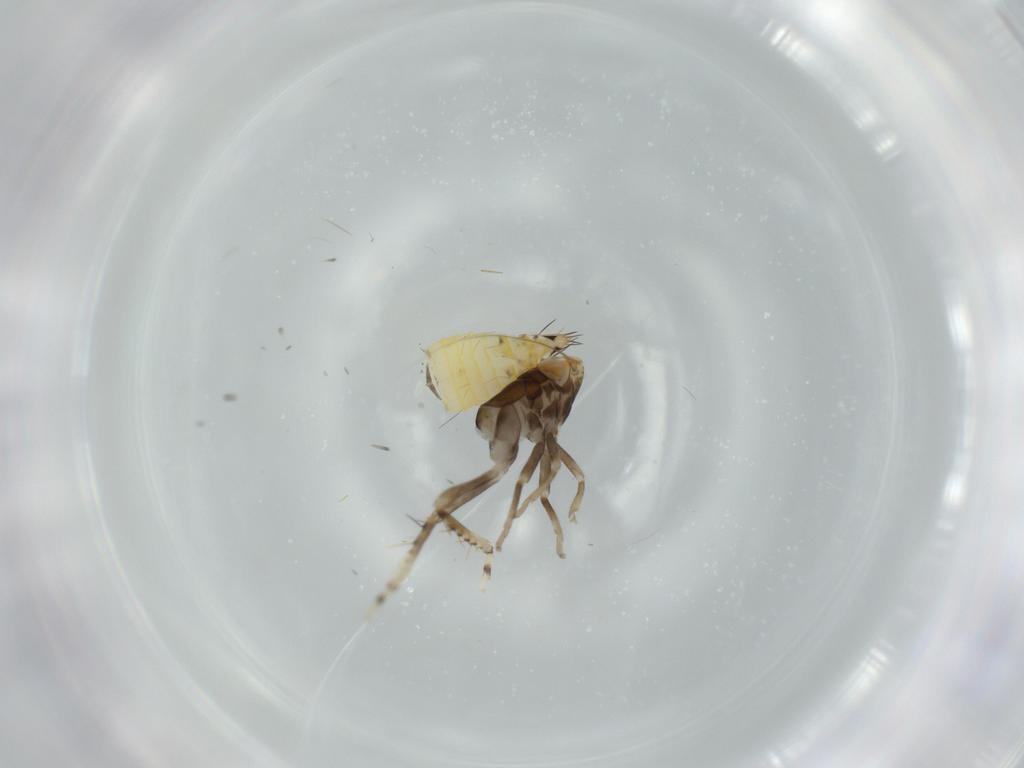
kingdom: Animalia
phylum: Arthropoda
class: Insecta
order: Hemiptera
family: Cicadellidae
